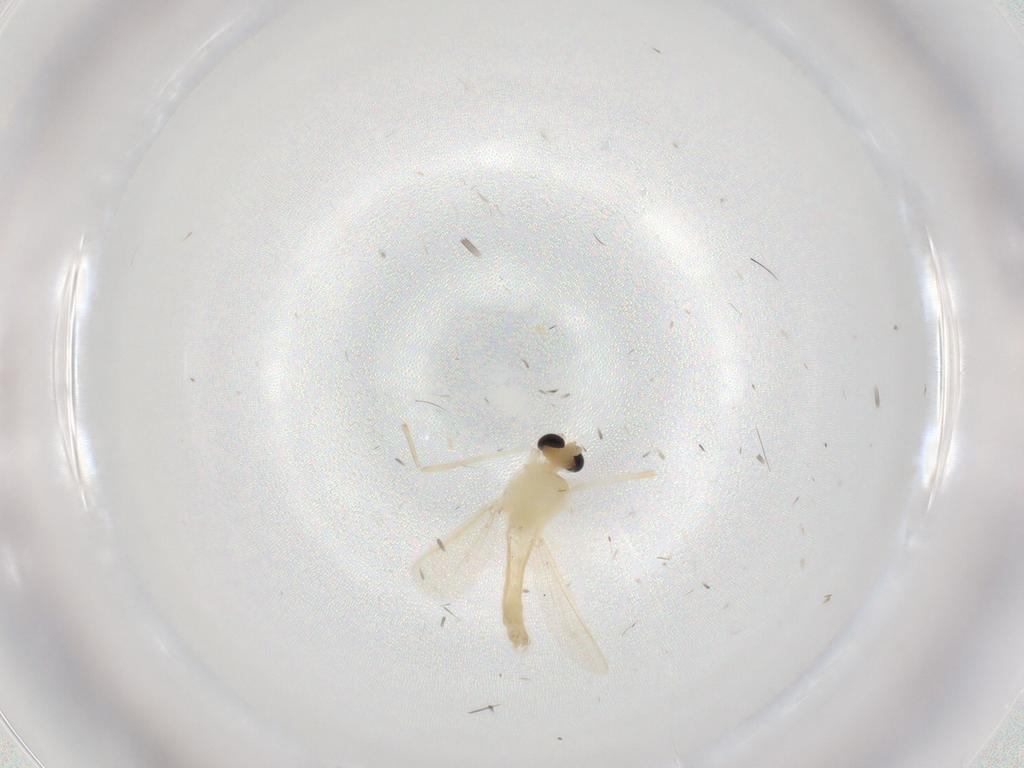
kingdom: Animalia
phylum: Arthropoda
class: Insecta
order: Diptera
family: Chironomidae
